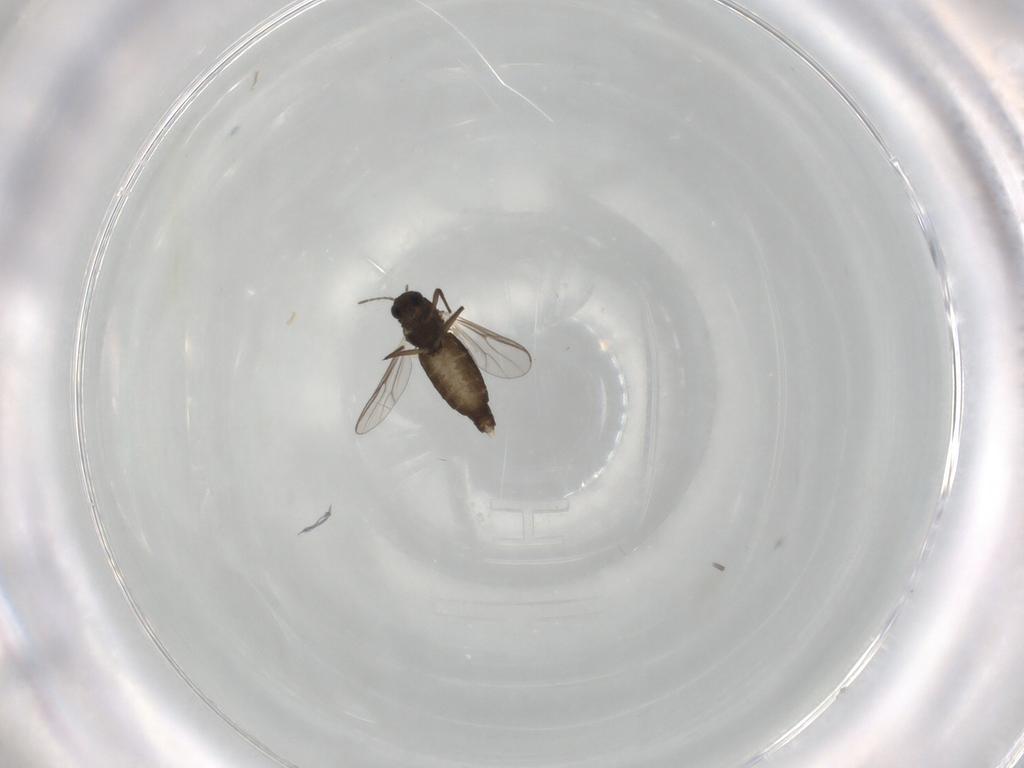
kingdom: Animalia
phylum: Arthropoda
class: Insecta
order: Diptera
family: Chironomidae
